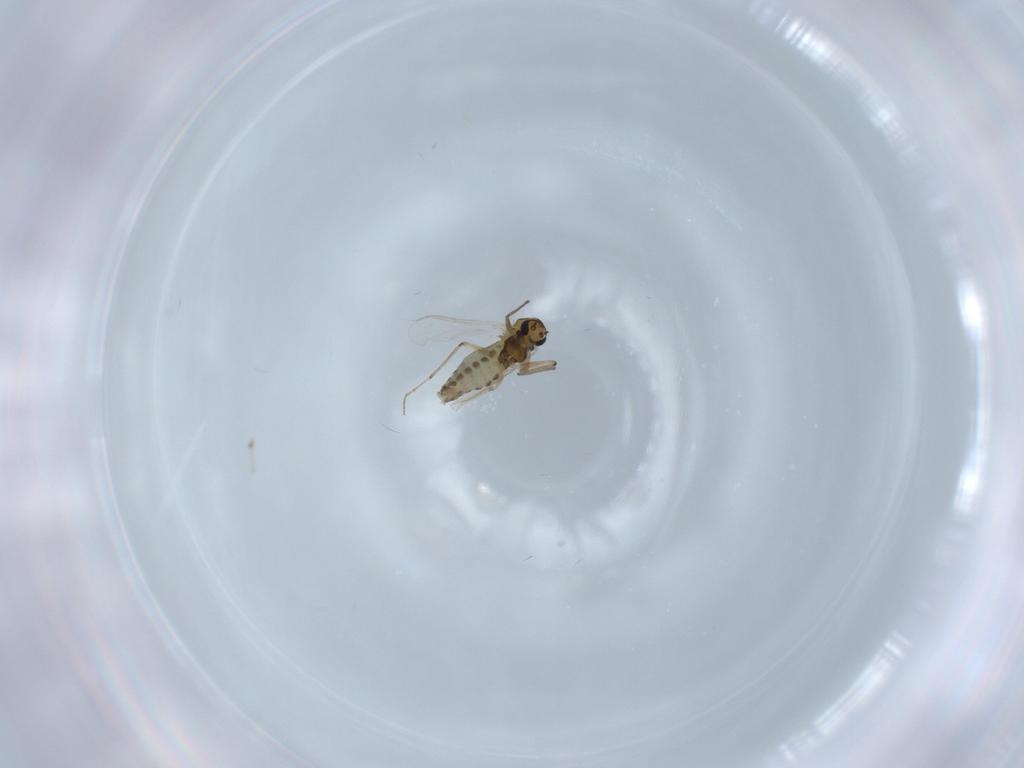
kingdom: Animalia
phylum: Arthropoda
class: Insecta
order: Diptera
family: Chironomidae
